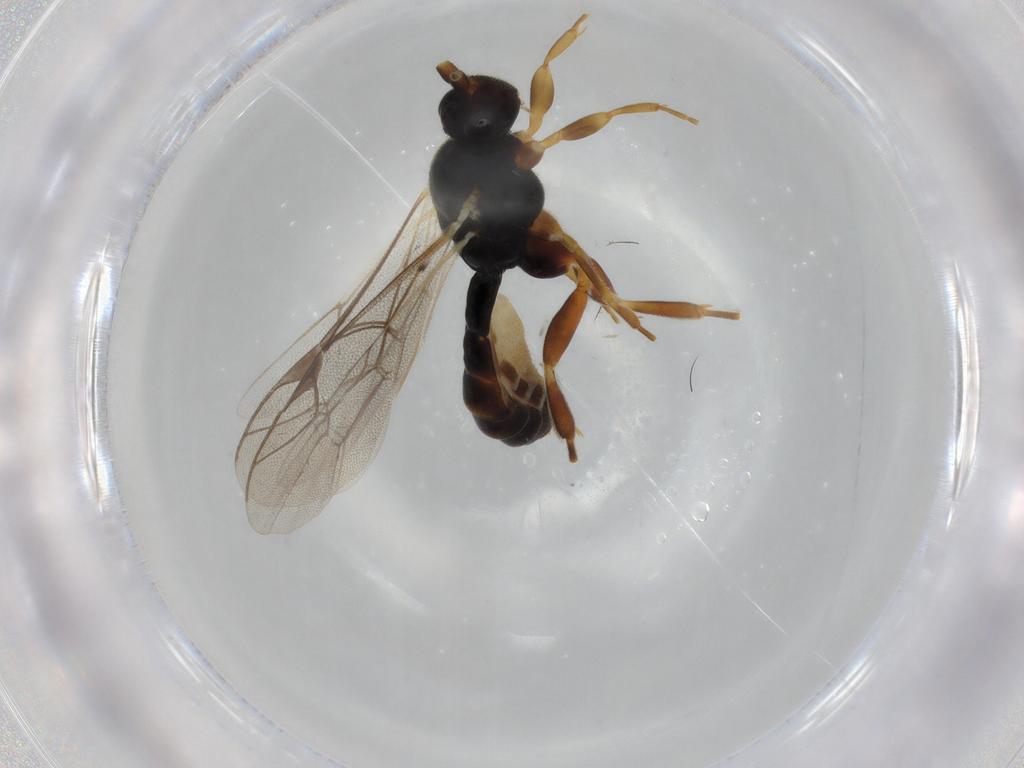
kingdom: Animalia
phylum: Arthropoda
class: Insecta
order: Hymenoptera
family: Ichneumonidae
